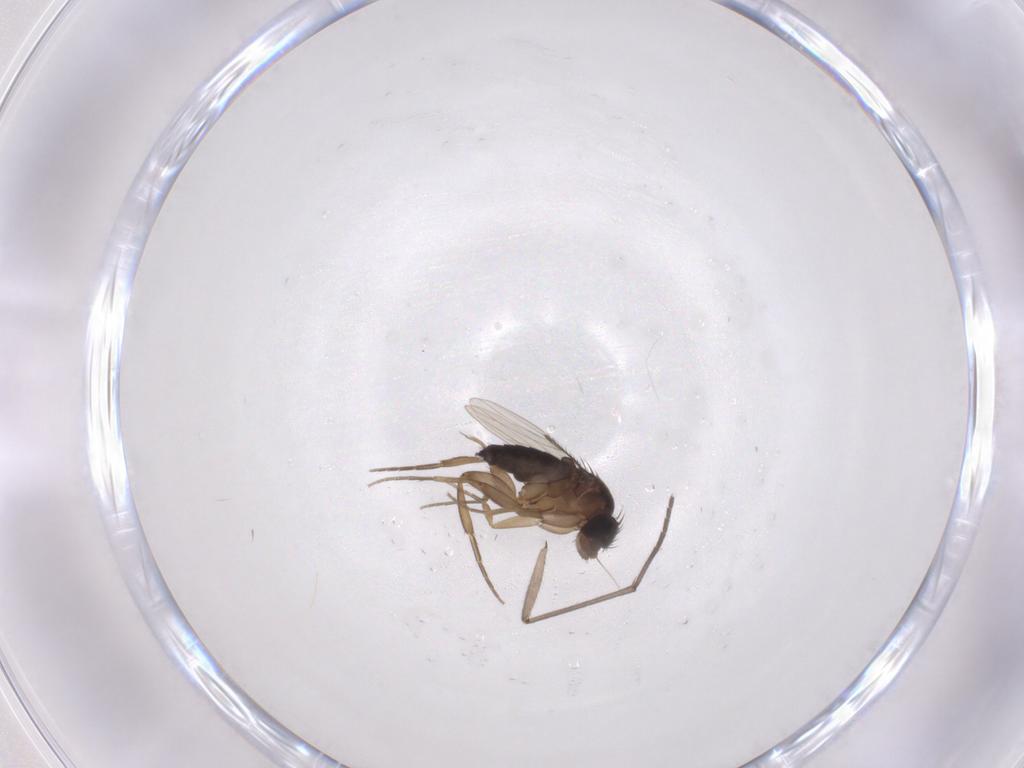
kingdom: Animalia
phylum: Arthropoda
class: Insecta
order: Diptera
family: Sciaridae
